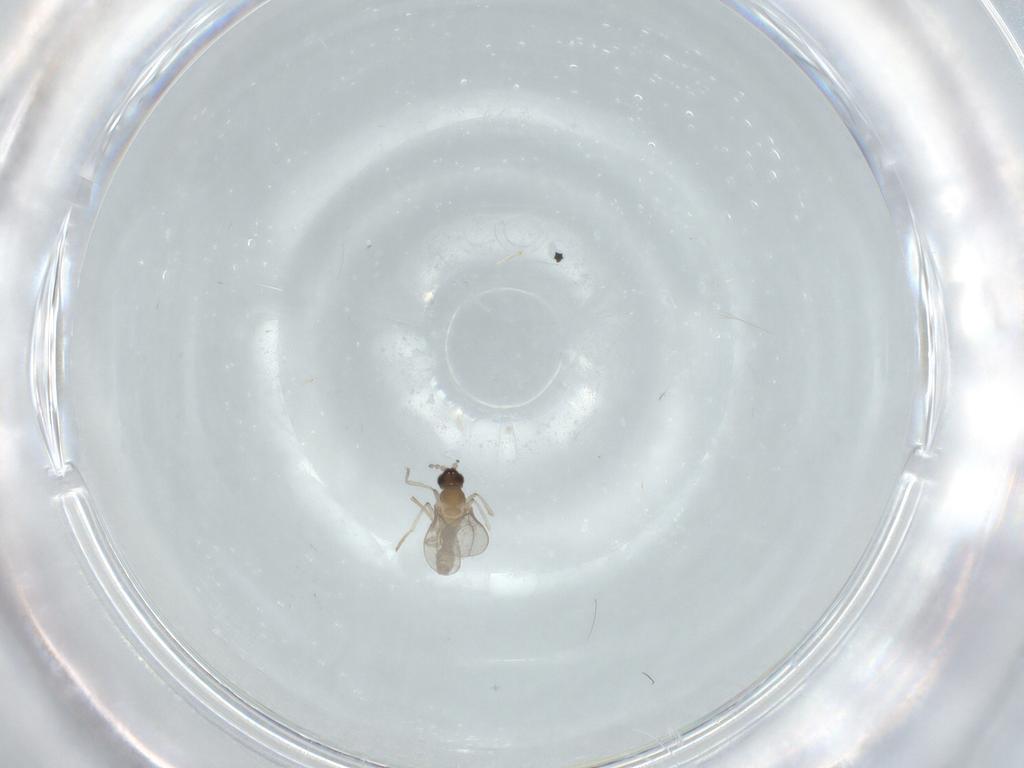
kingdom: Animalia
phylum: Arthropoda
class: Insecta
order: Diptera
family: Cecidomyiidae
